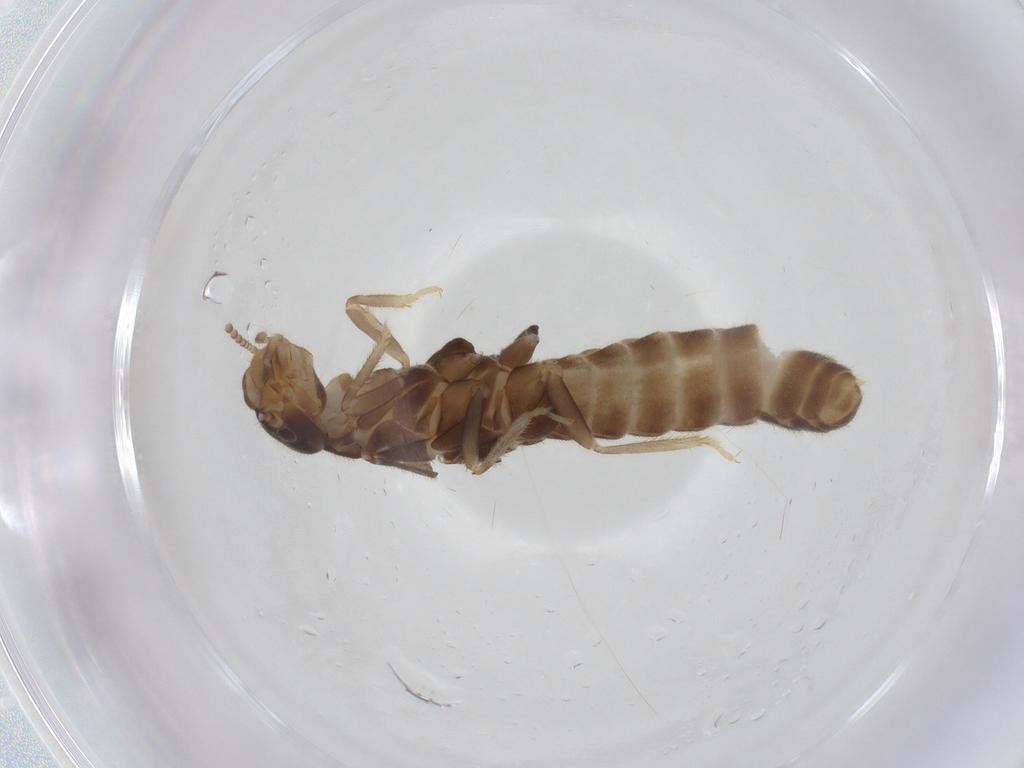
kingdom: Animalia
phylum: Arthropoda
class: Insecta
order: Blattodea
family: Rhinotermitidae
